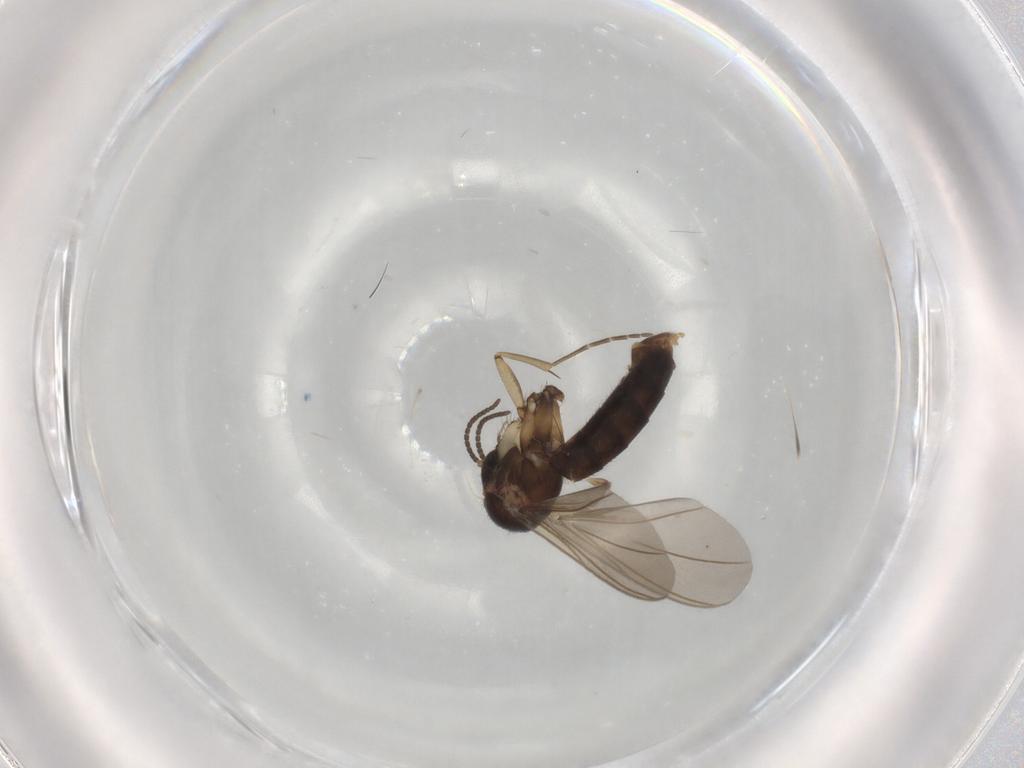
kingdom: Animalia
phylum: Arthropoda
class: Insecta
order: Diptera
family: Mycetophilidae
